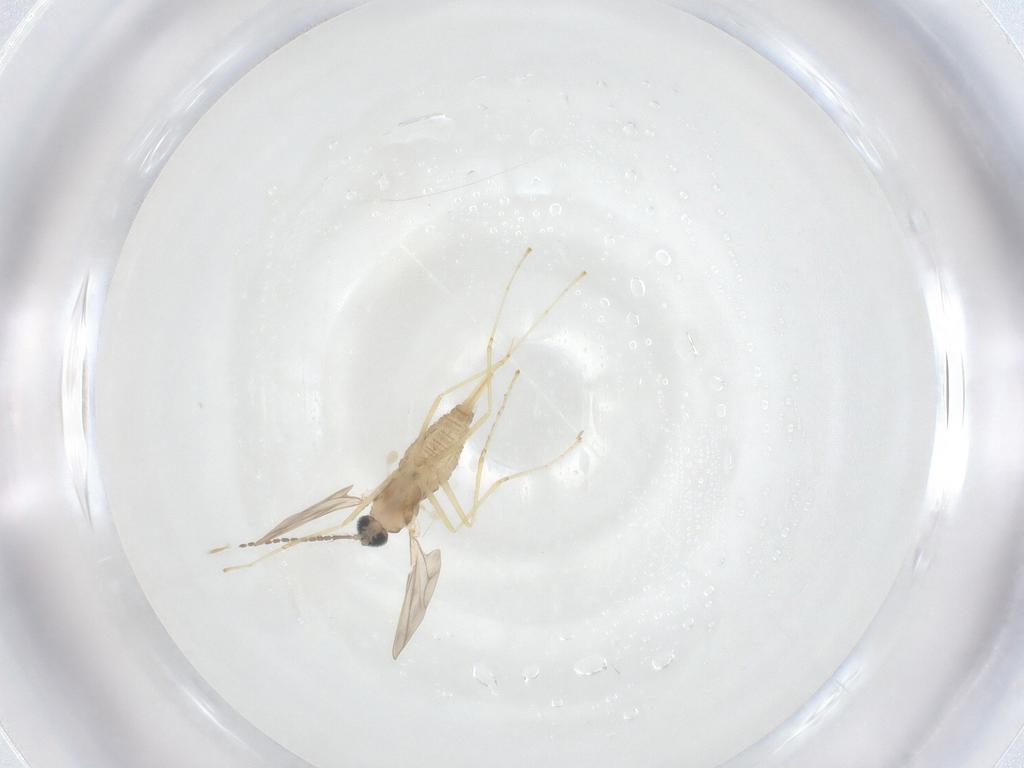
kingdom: Animalia
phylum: Arthropoda
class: Insecta
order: Diptera
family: Cecidomyiidae
